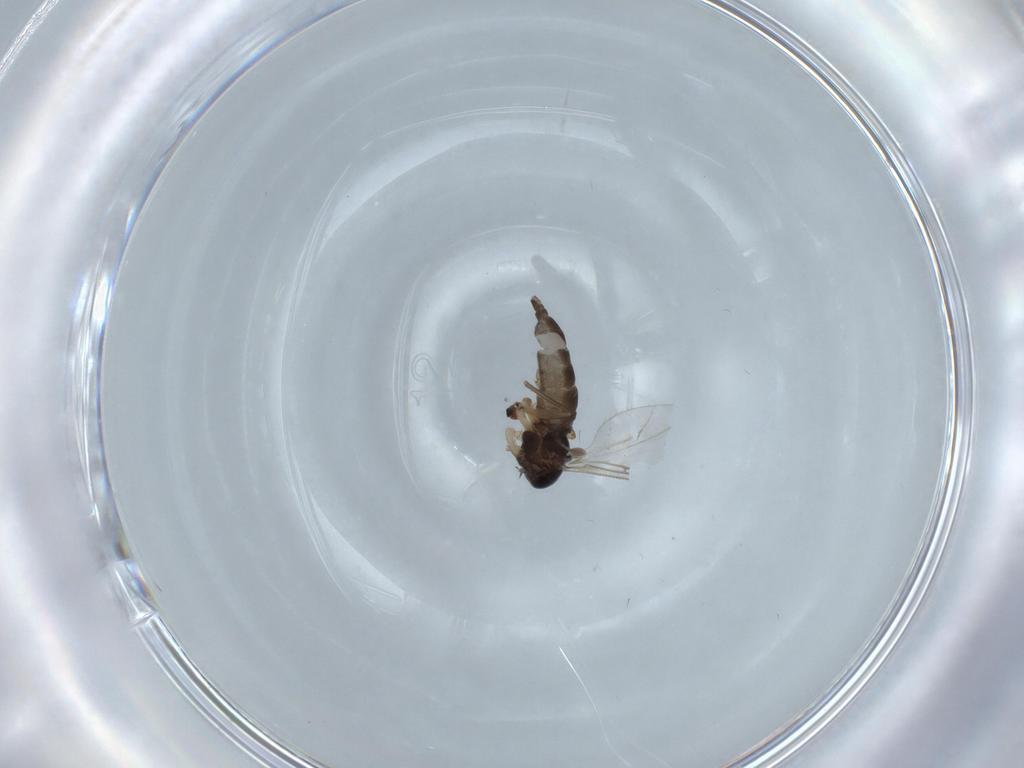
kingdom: Animalia
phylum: Arthropoda
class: Insecta
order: Diptera
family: Sciaridae
